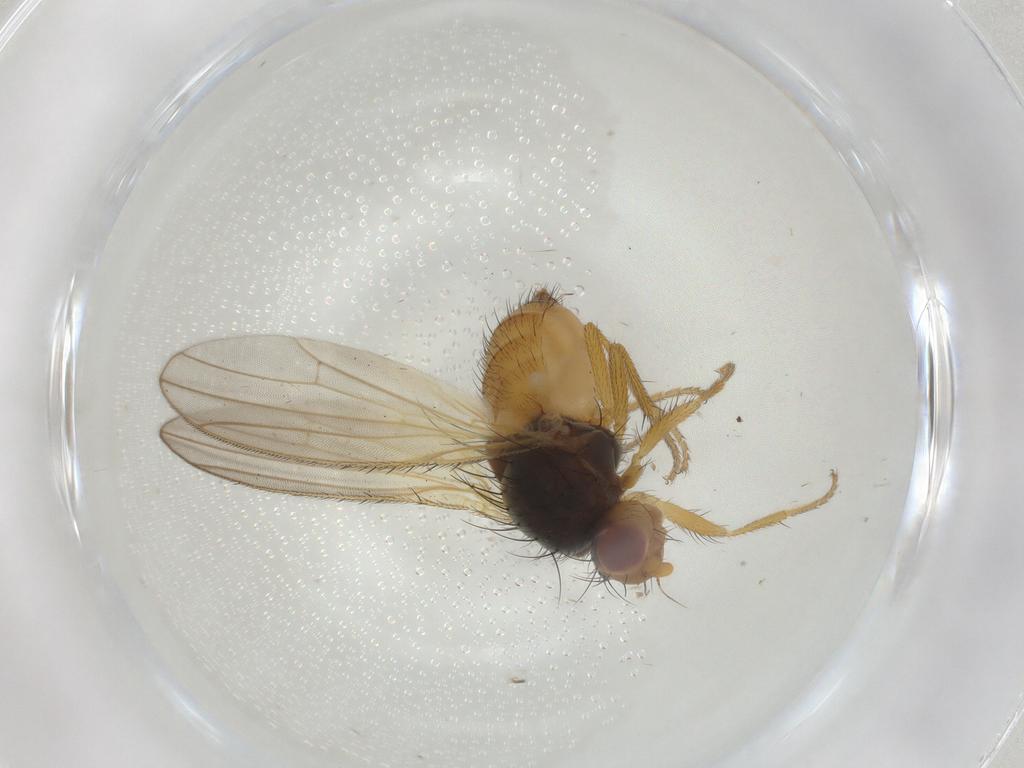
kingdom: Animalia
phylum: Arthropoda
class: Insecta
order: Diptera
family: Heleomyzidae
